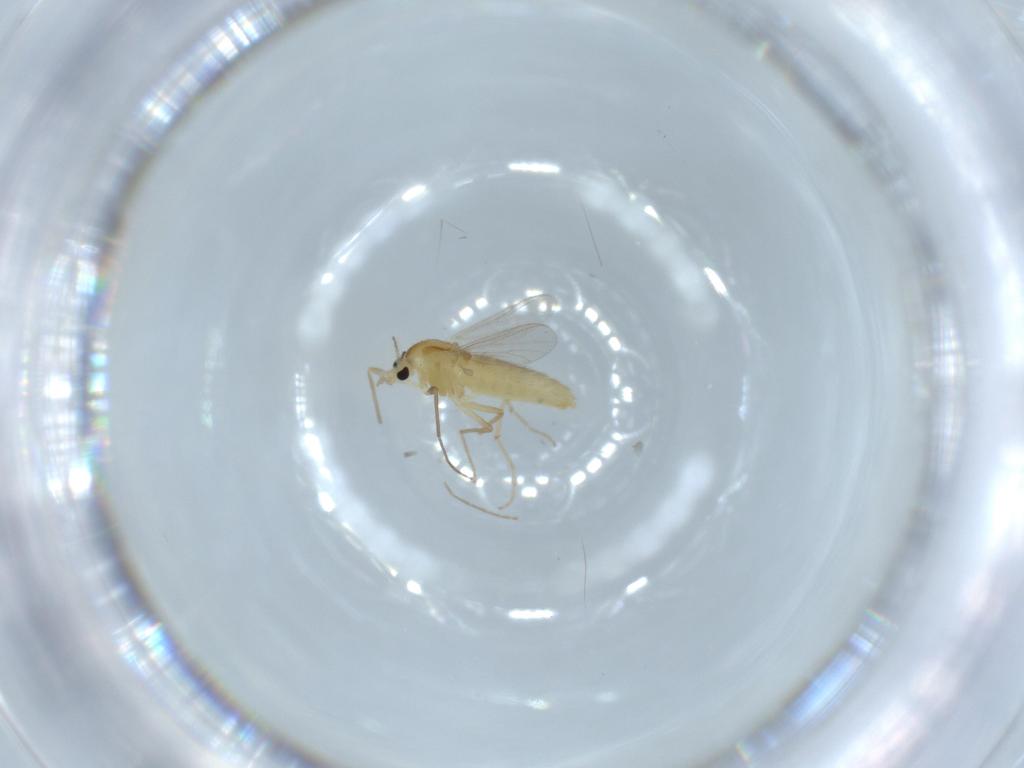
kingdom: Animalia
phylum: Arthropoda
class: Insecta
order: Diptera
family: Chironomidae
